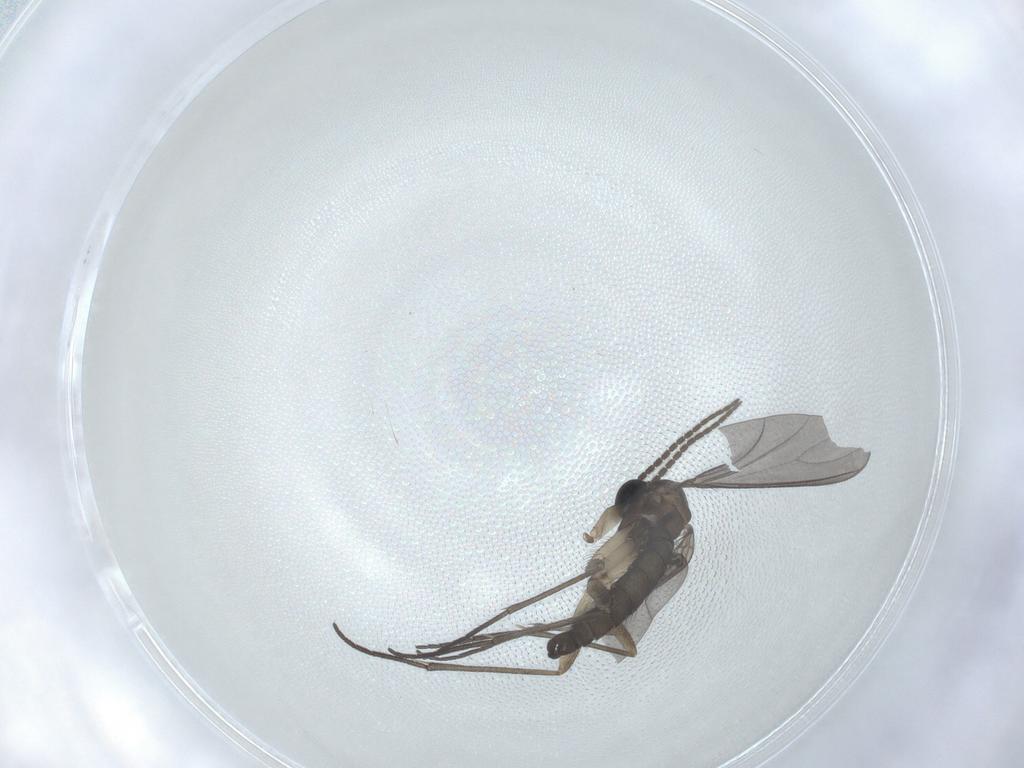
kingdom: Animalia
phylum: Arthropoda
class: Insecta
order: Diptera
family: Sciaridae
